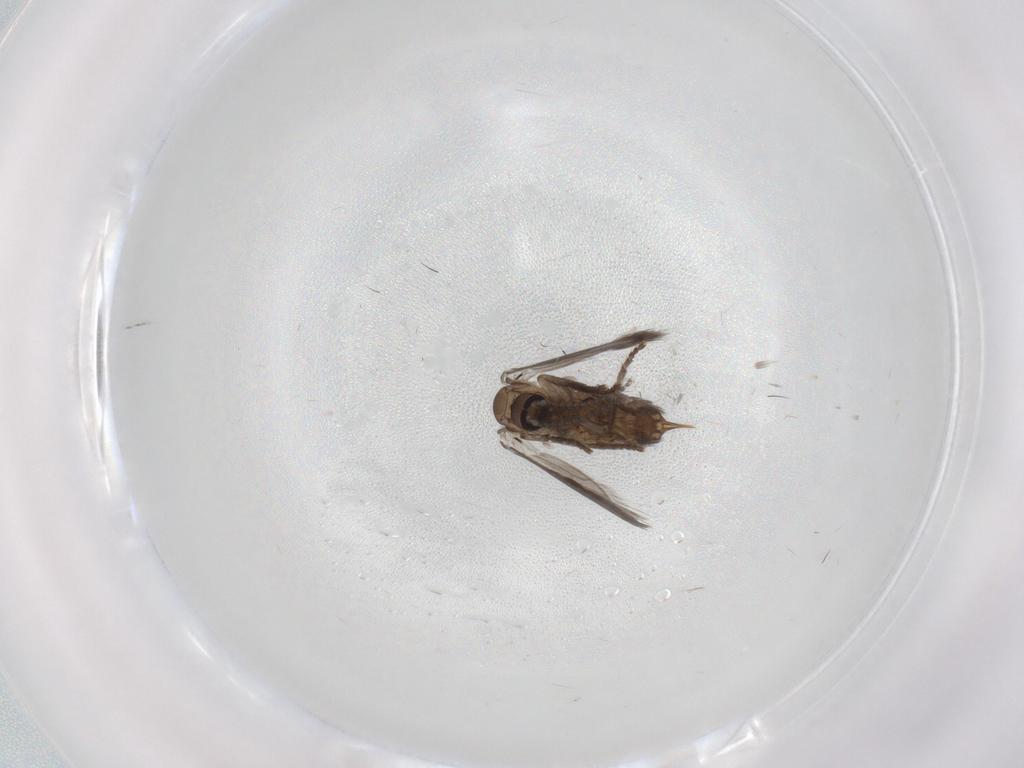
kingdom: Animalia
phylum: Arthropoda
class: Insecta
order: Diptera
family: Psychodidae
